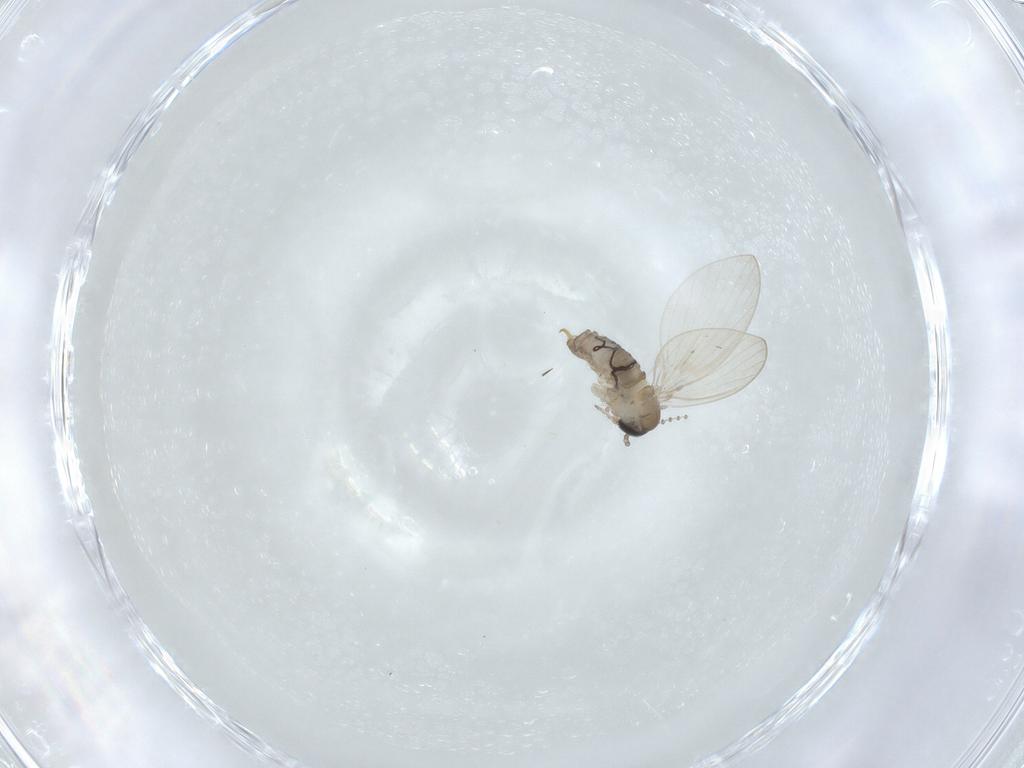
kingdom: Animalia
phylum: Arthropoda
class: Insecta
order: Diptera
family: Psychodidae
